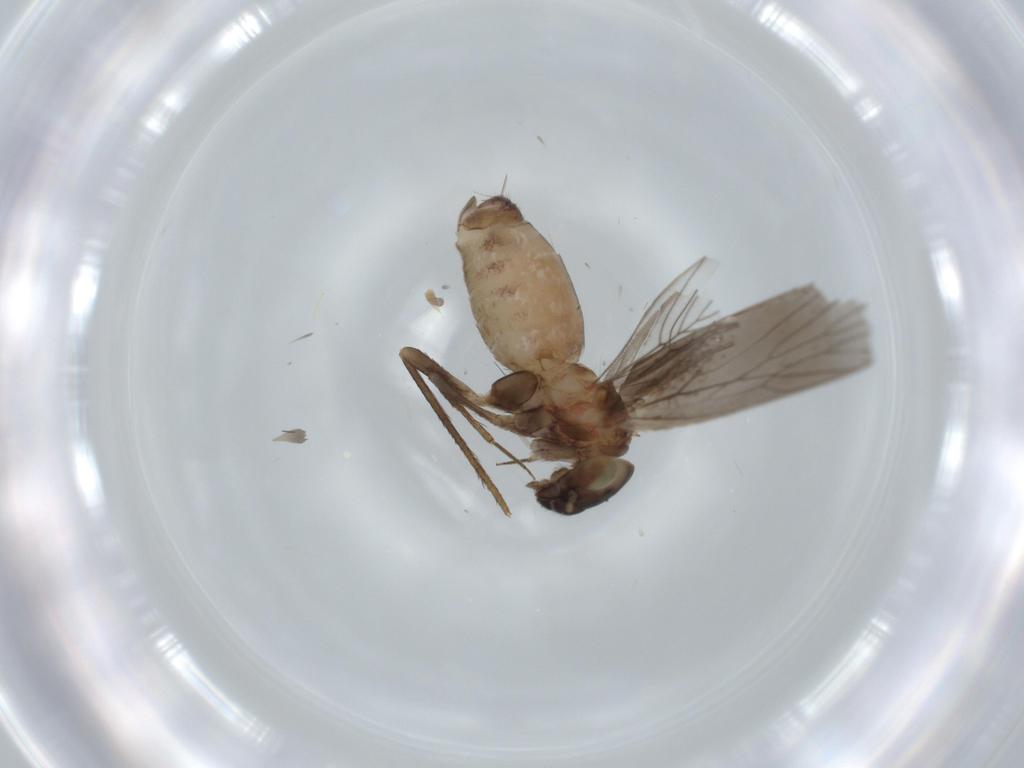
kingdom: Animalia
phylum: Arthropoda
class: Insecta
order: Psocodea
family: Lepidopsocidae
